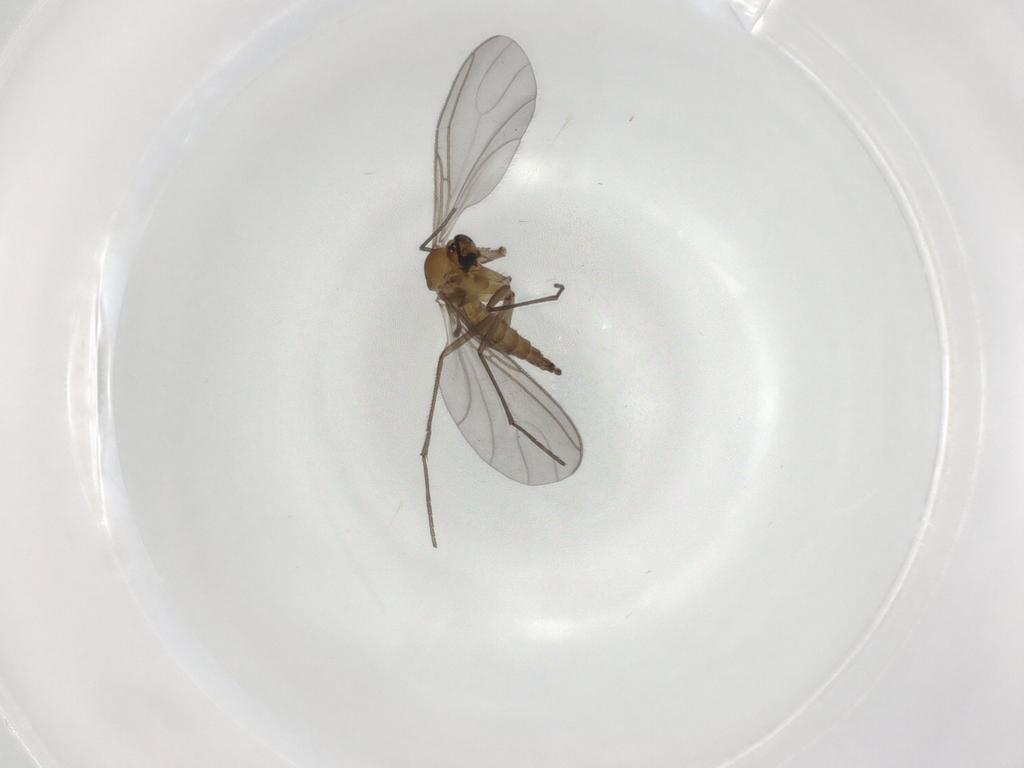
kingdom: Animalia
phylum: Arthropoda
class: Insecta
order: Diptera
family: Sciaridae
